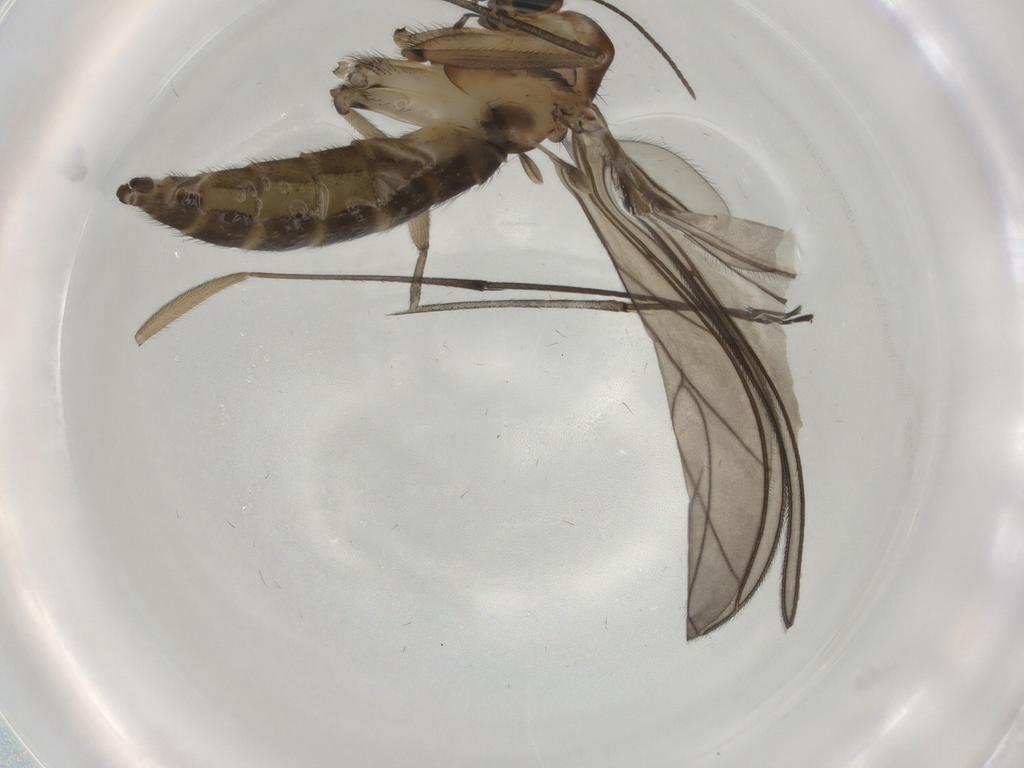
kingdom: Animalia
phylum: Arthropoda
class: Insecta
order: Diptera
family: Sciaridae
